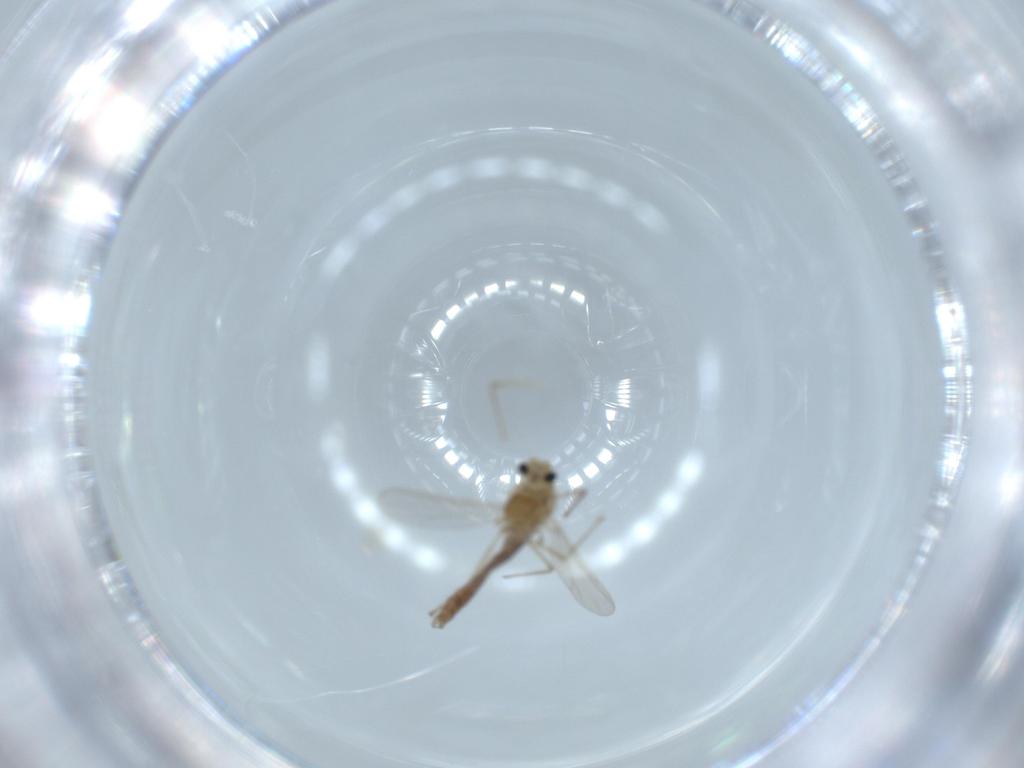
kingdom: Animalia
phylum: Arthropoda
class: Insecta
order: Diptera
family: Chironomidae
